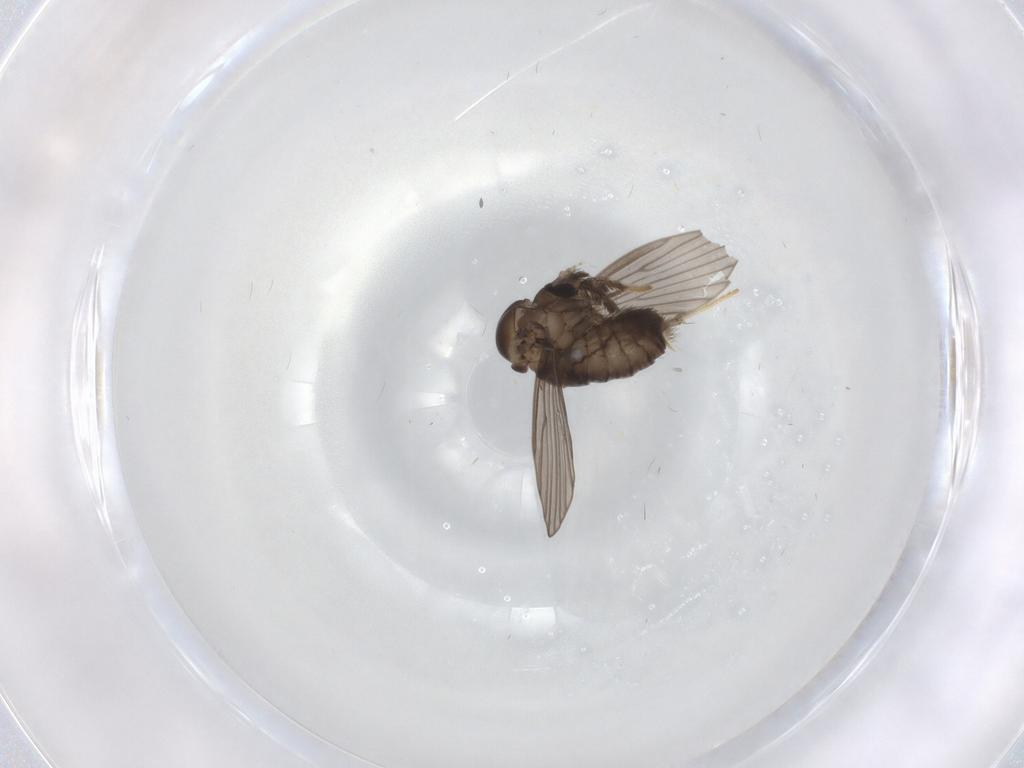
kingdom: Animalia
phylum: Arthropoda
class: Insecta
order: Diptera
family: Psychodidae
